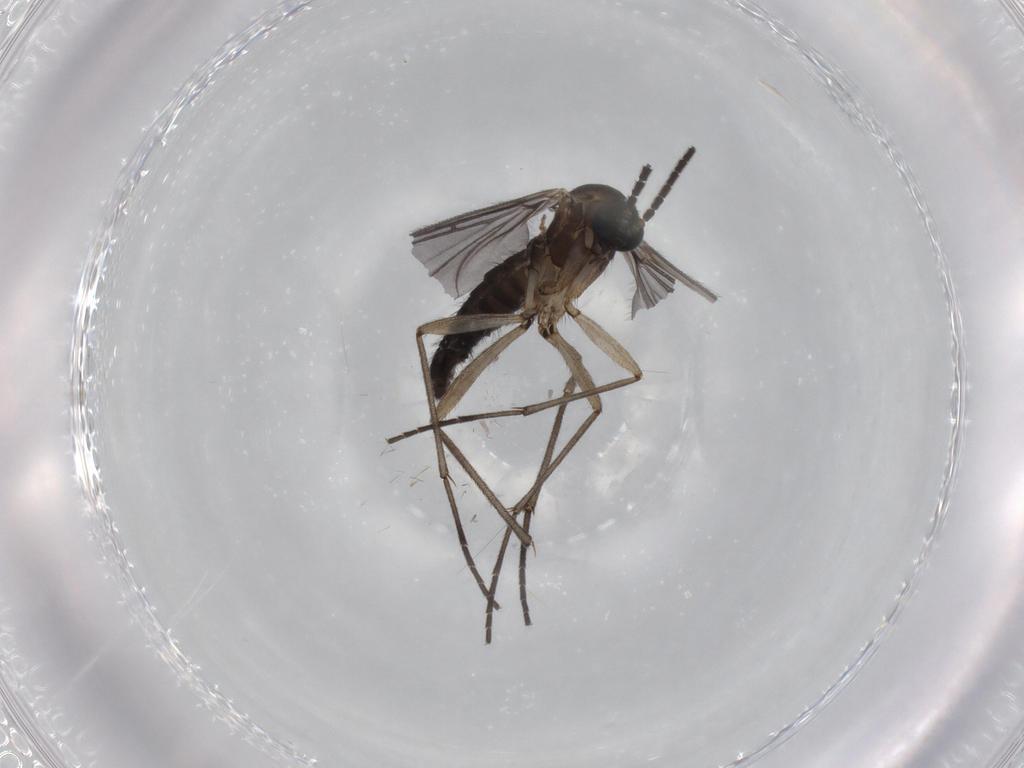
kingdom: Animalia
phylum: Arthropoda
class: Insecta
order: Diptera
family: Sciaridae
